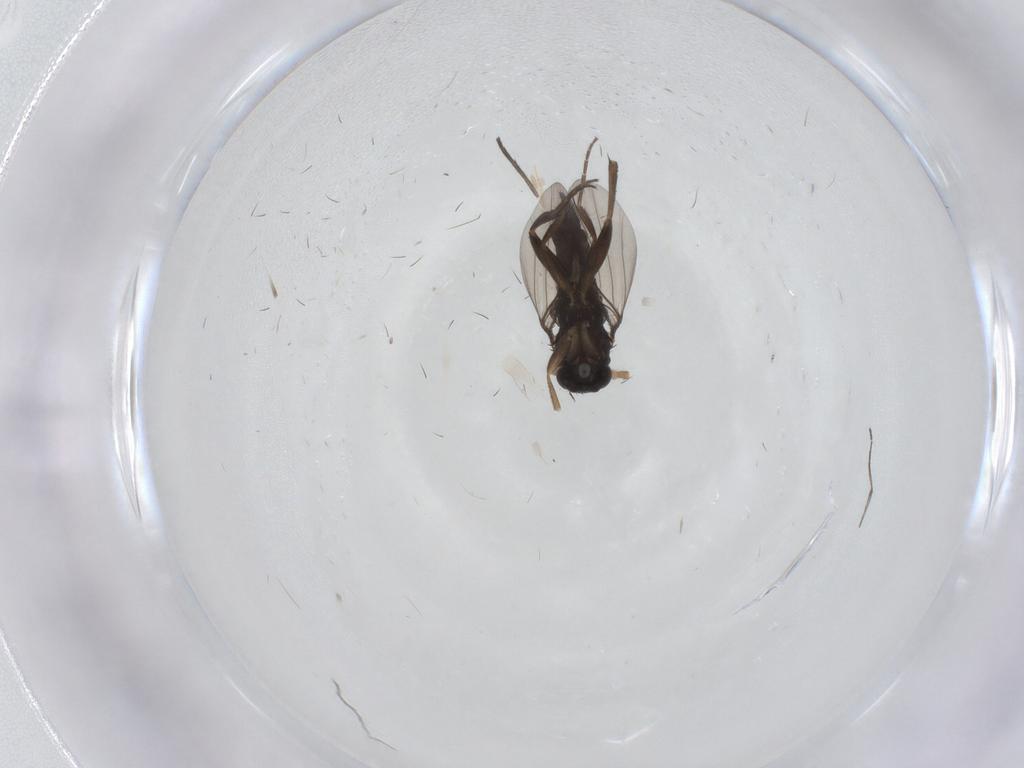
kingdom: Animalia
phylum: Arthropoda
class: Insecta
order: Diptera
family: Phoridae
